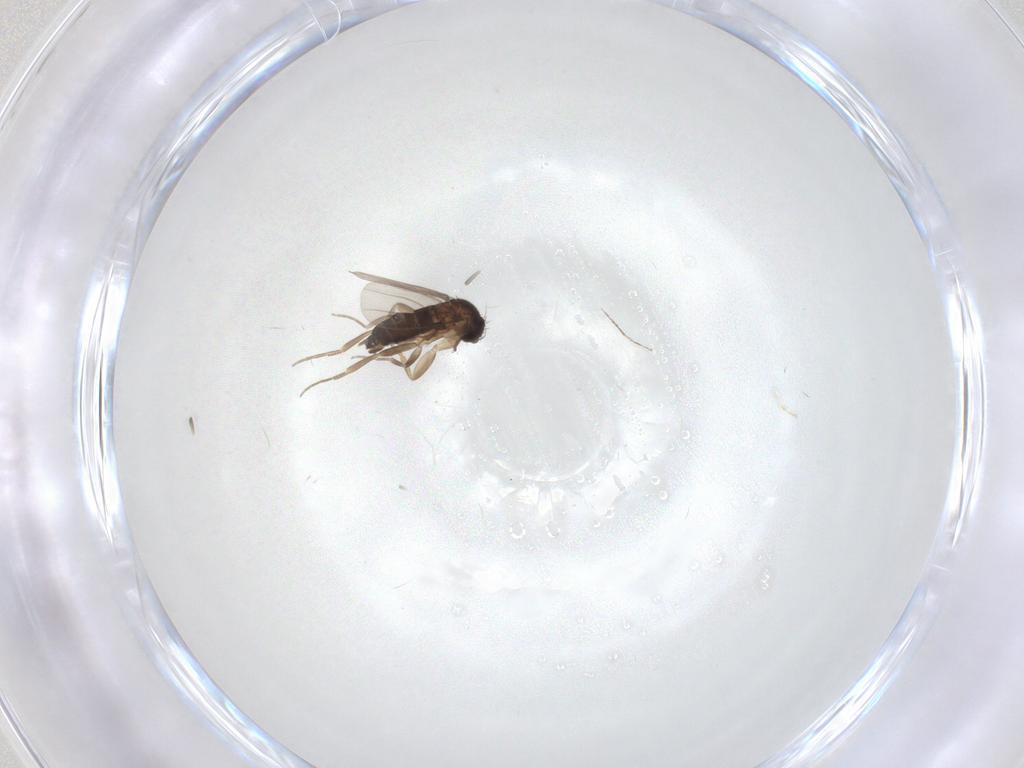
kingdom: Animalia
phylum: Arthropoda
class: Insecta
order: Diptera
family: Phoridae
